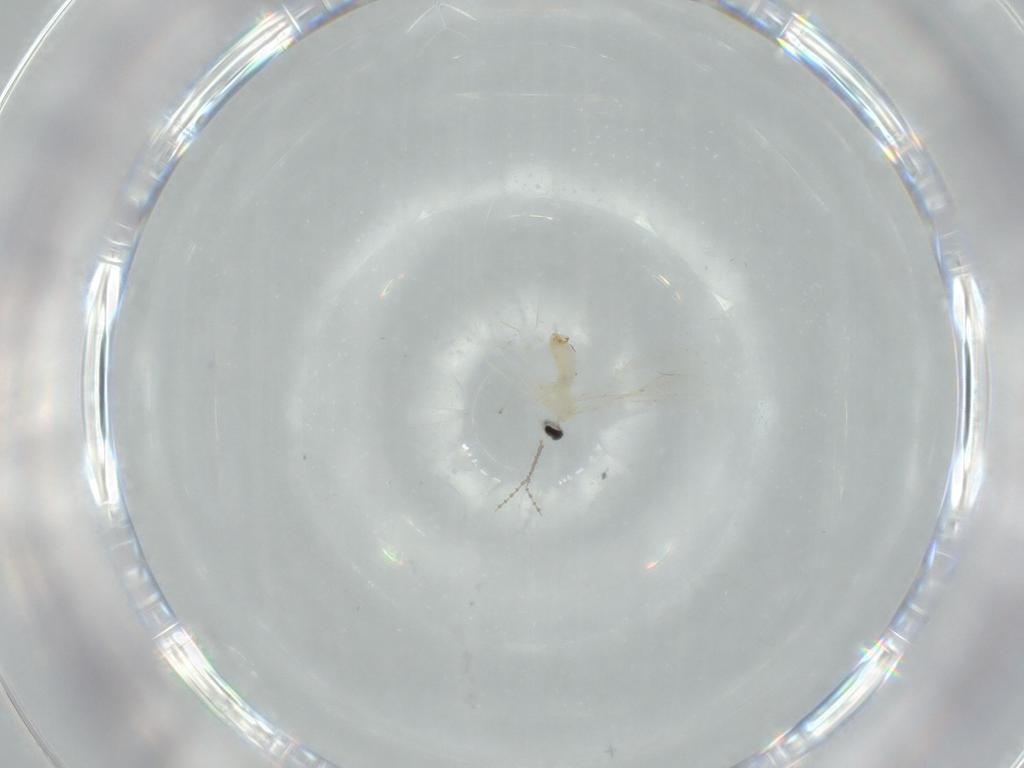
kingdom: Animalia
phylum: Arthropoda
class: Insecta
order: Diptera
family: Cecidomyiidae
